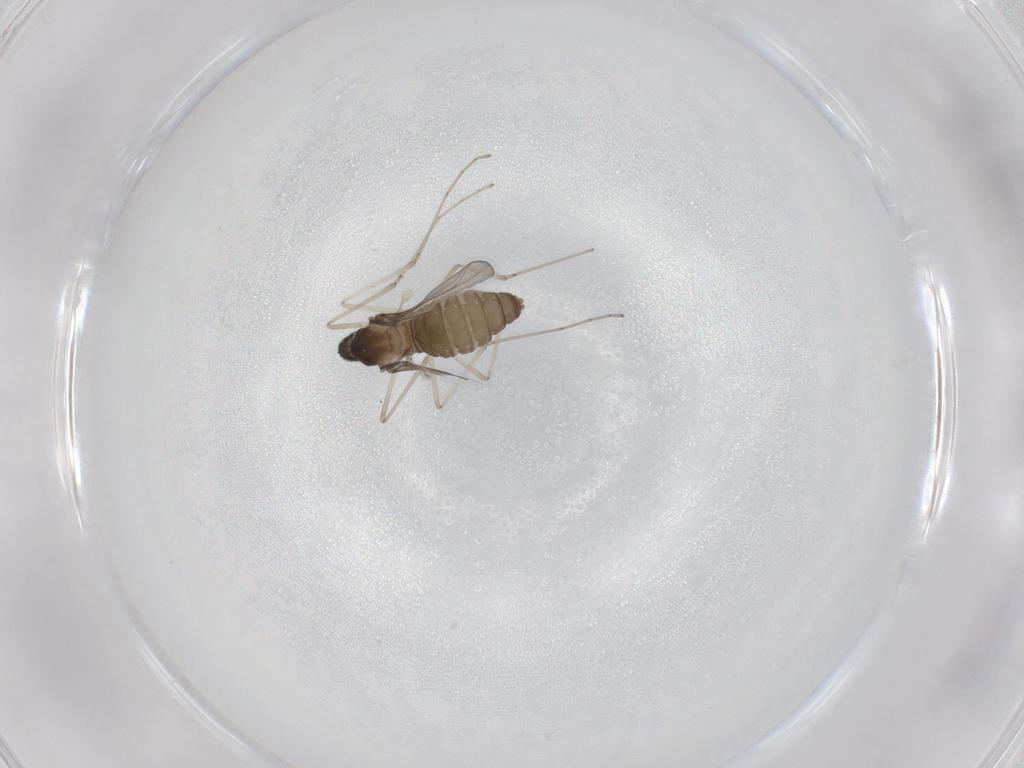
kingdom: Animalia
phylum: Arthropoda
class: Insecta
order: Diptera
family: Cecidomyiidae
